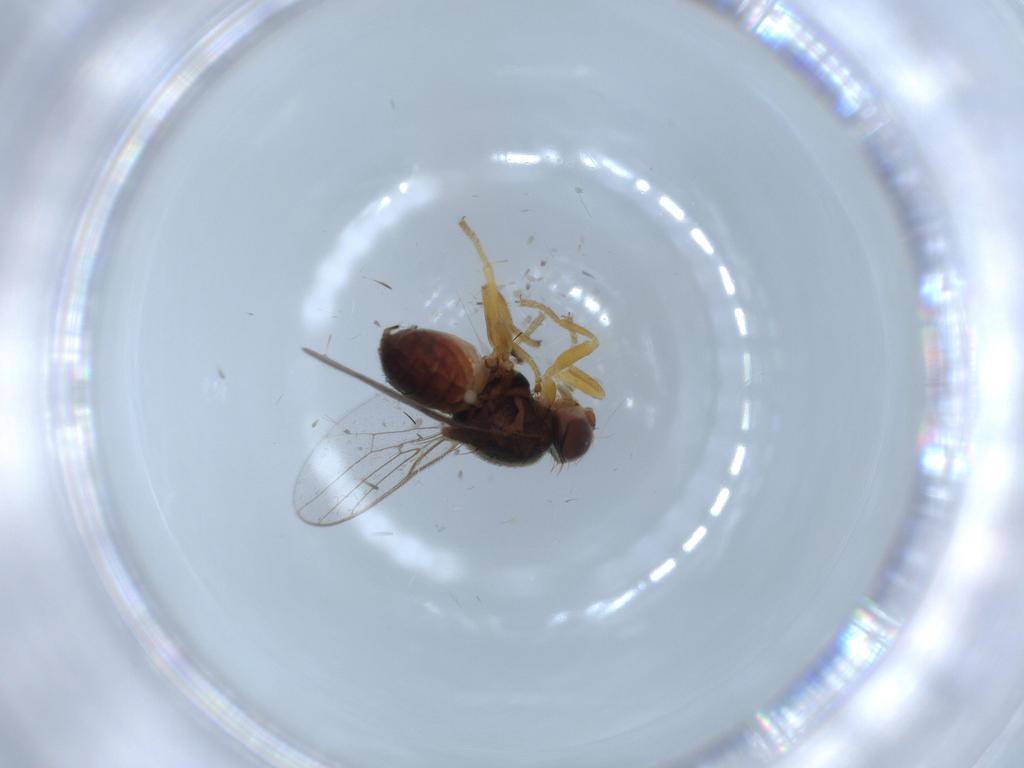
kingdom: Animalia
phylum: Arthropoda
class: Insecta
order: Diptera
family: Chloropidae
